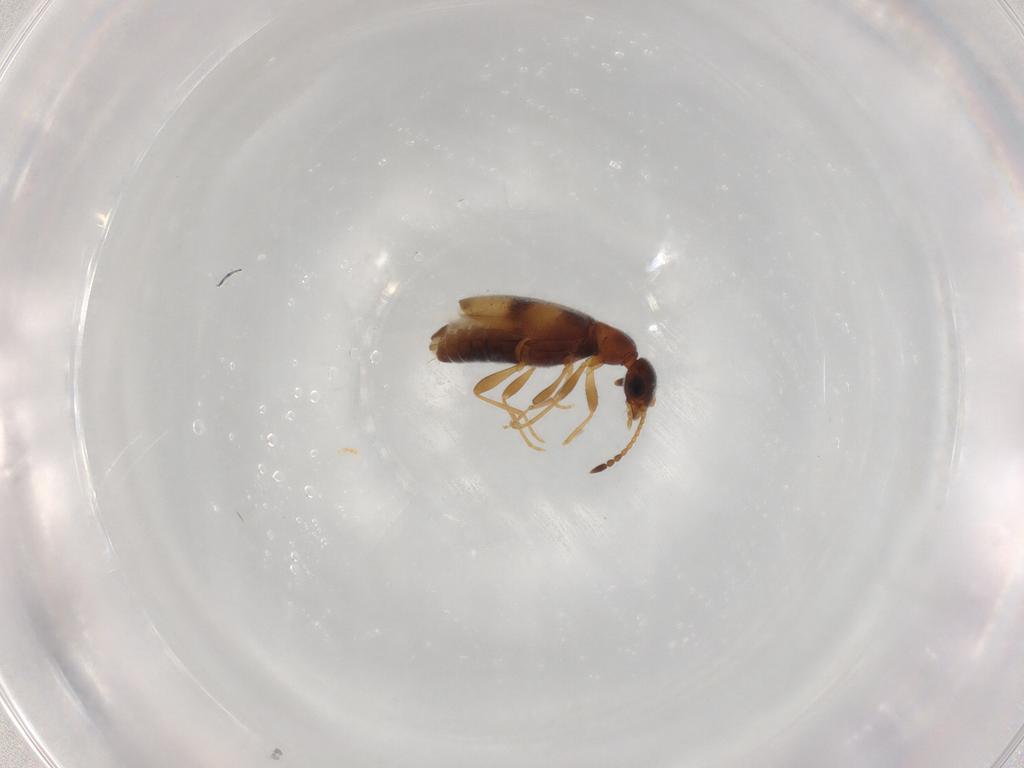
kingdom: Animalia
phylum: Arthropoda
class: Insecta
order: Coleoptera
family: Anthicidae
